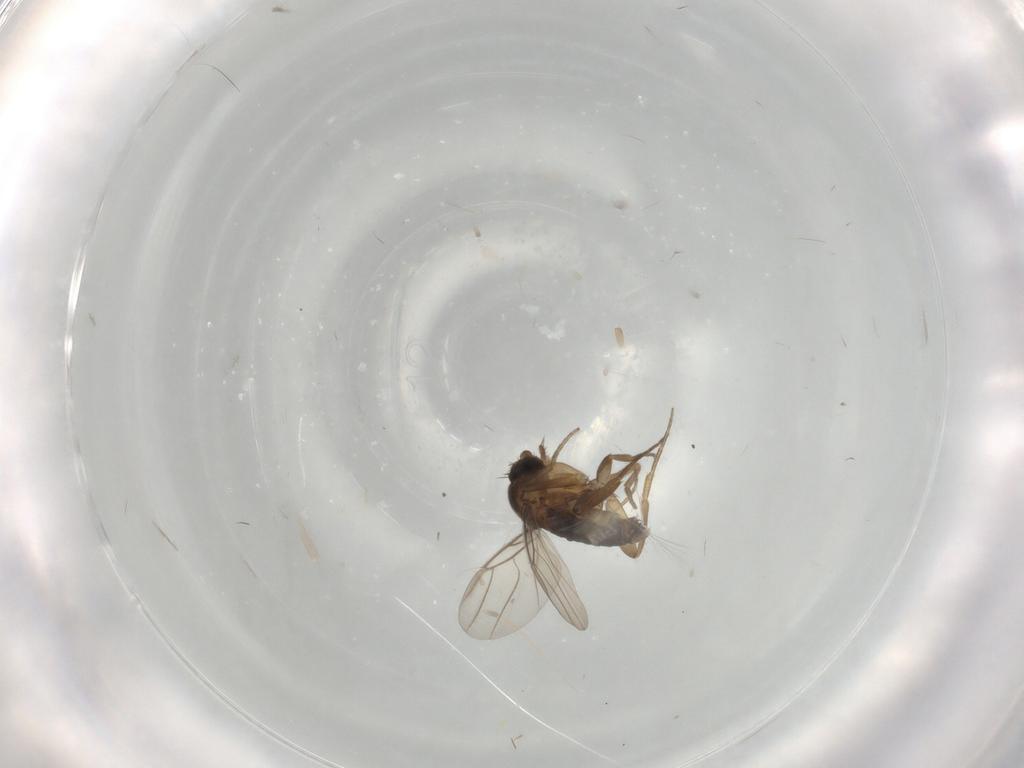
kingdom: Animalia
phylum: Arthropoda
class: Insecta
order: Diptera
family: Phoridae
